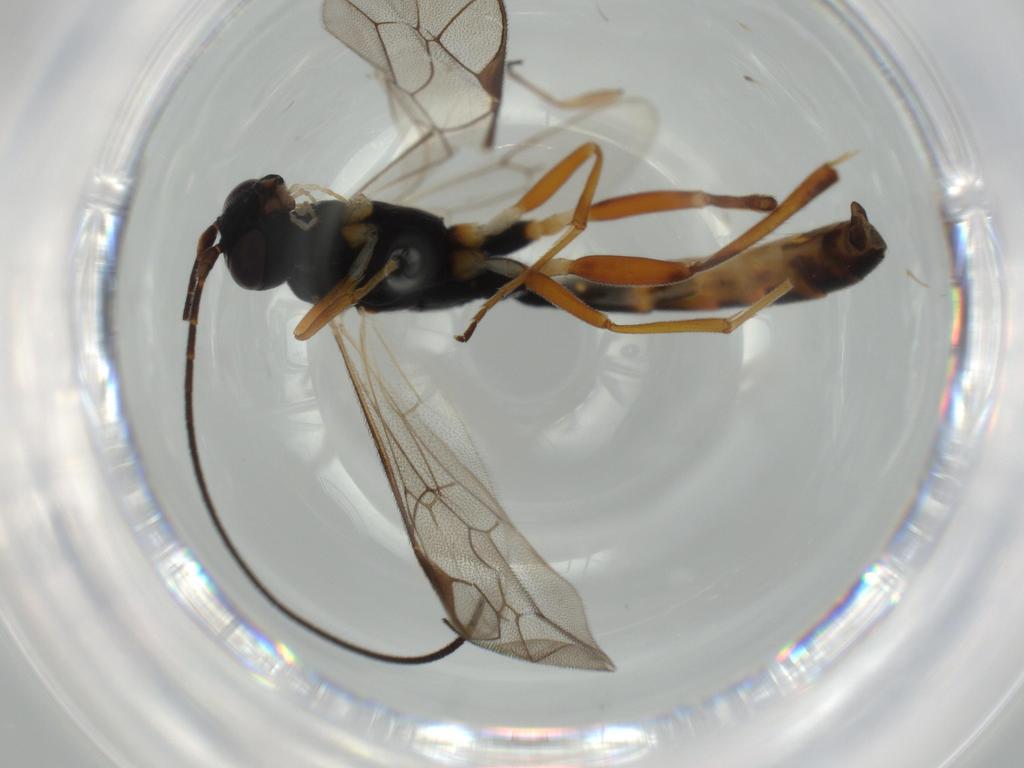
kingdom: Animalia
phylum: Arthropoda
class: Insecta
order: Hymenoptera
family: Ichneumonidae
